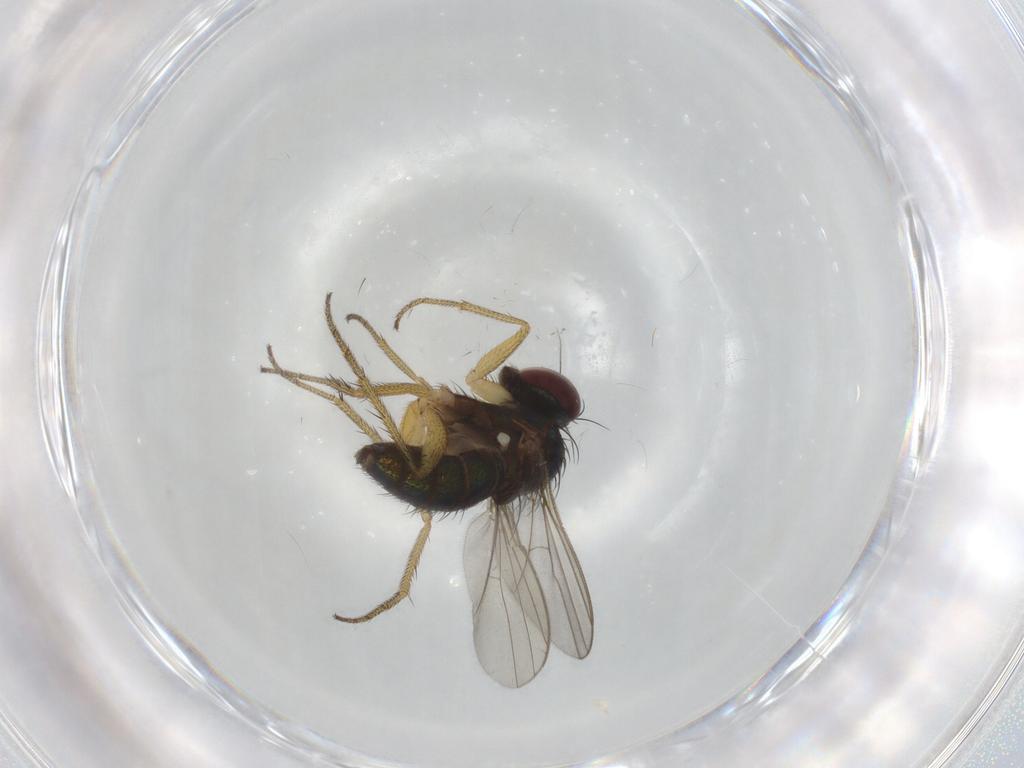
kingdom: Animalia
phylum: Arthropoda
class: Insecta
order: Diptera
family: Dolichopodidae
